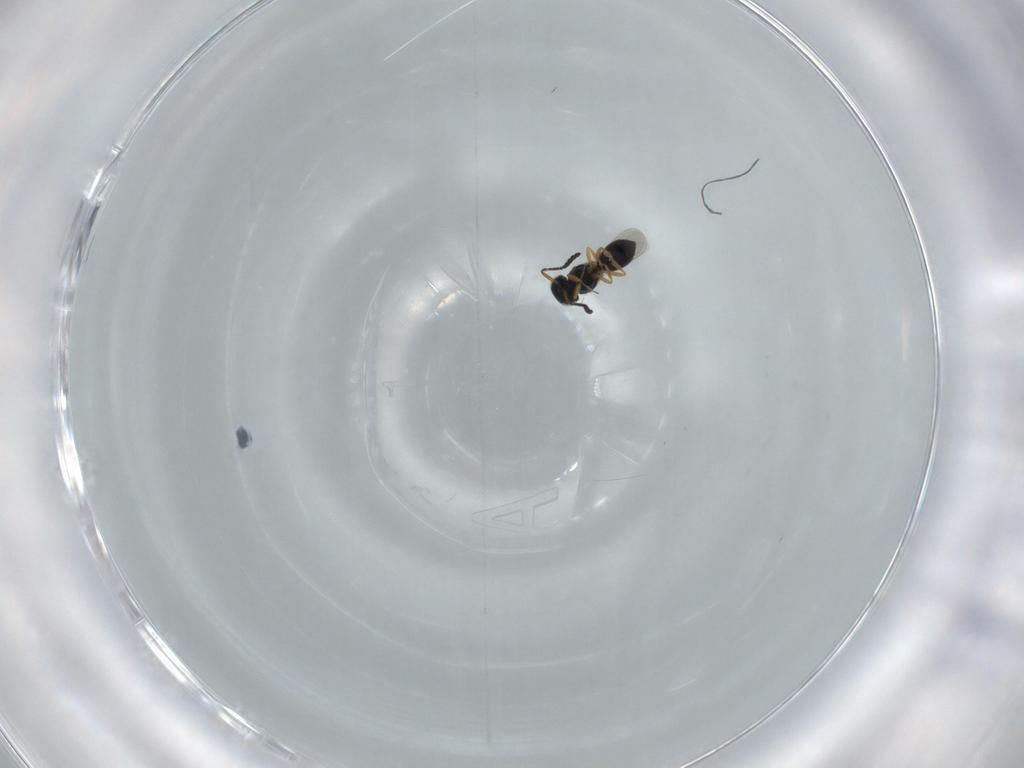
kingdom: Animalia
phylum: Arthropoda
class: Insecta
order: Hymenoptera
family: Scelionidae
